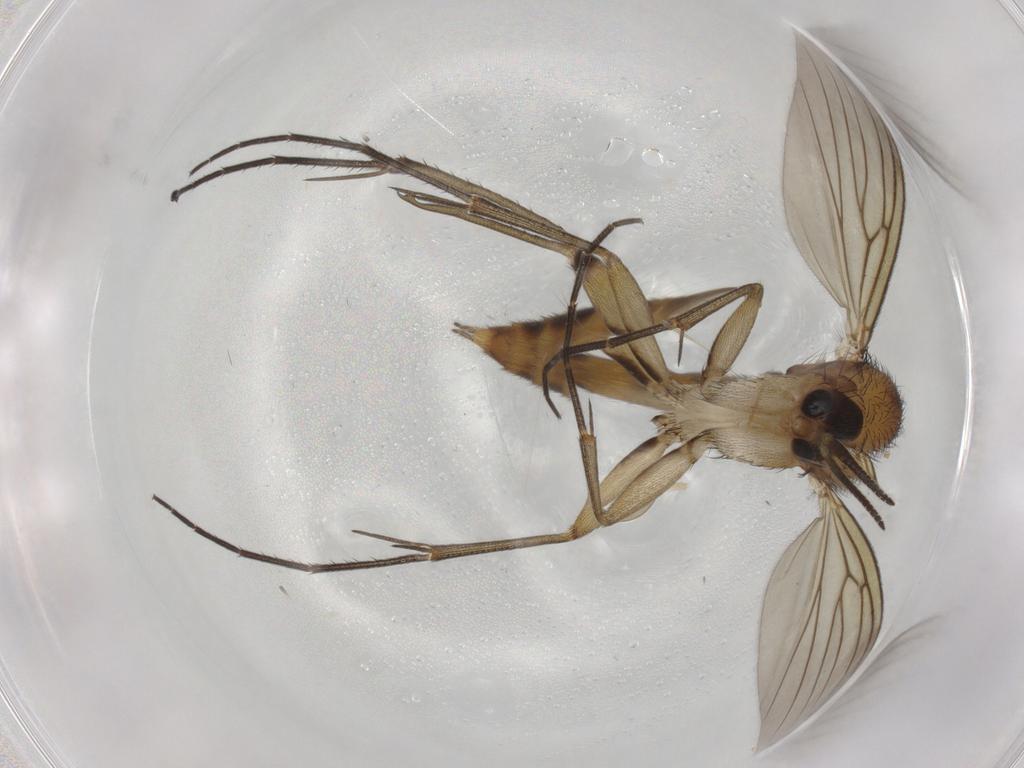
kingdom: Animalia
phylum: Arthropoda
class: Insecta
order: Diptera
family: Mycetophilidae
